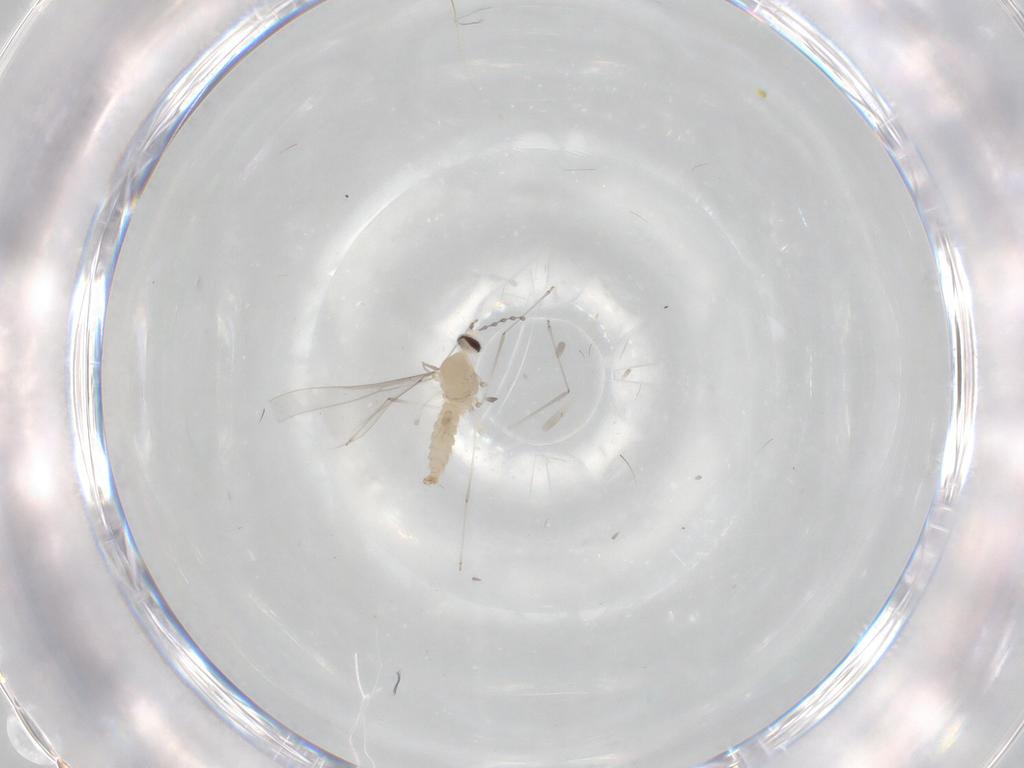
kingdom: Animalia
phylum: Arthropoda
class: Insecta
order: Diptera
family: Cecidomyiidae
